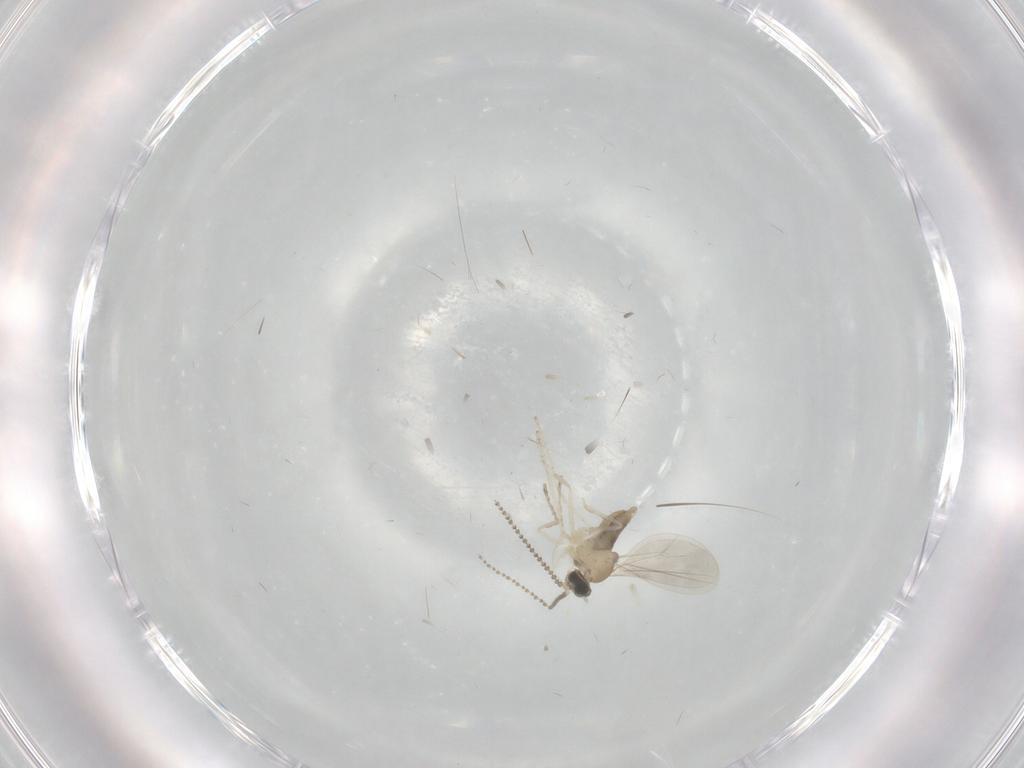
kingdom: Animalia
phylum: Arthropoda
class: Insecta
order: Diptera
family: Cecidomyiidae
